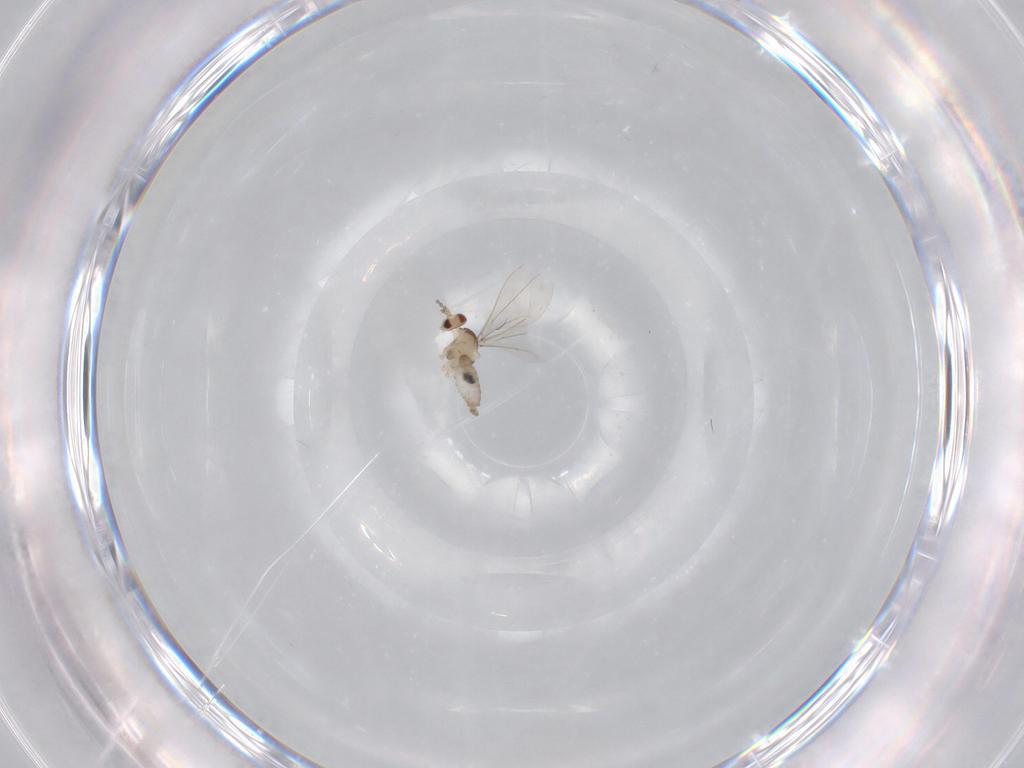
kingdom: Animalia
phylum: Arthropoda
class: Insecta
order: Diptera
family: Cecidomyiidae
